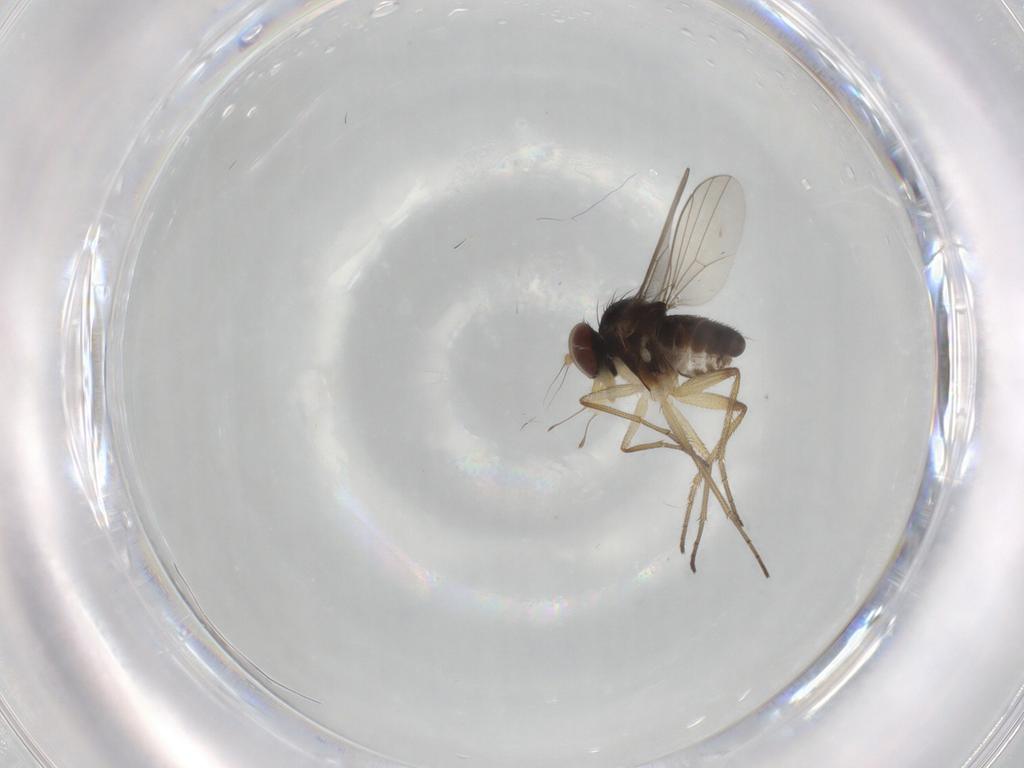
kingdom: Animalia
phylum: Arthropoda
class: Insecta
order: Diptera
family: Dolichopodidae
